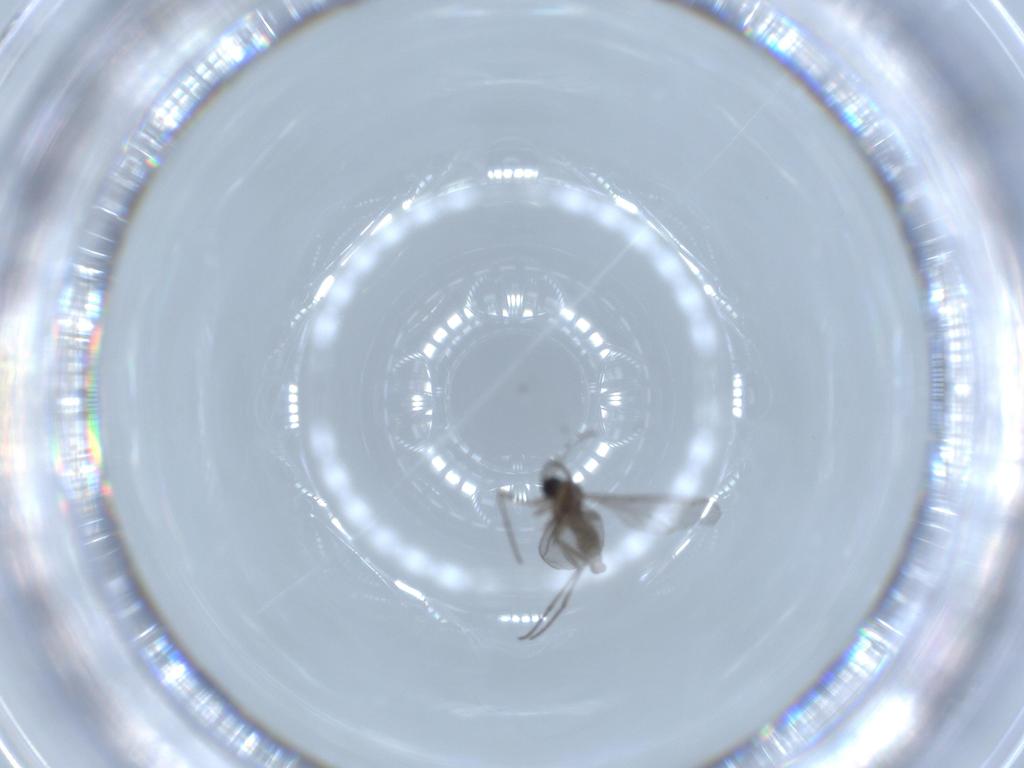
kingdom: Animalia
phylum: Arthropoda
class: Insecta
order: Diptera
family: Sciaridae
